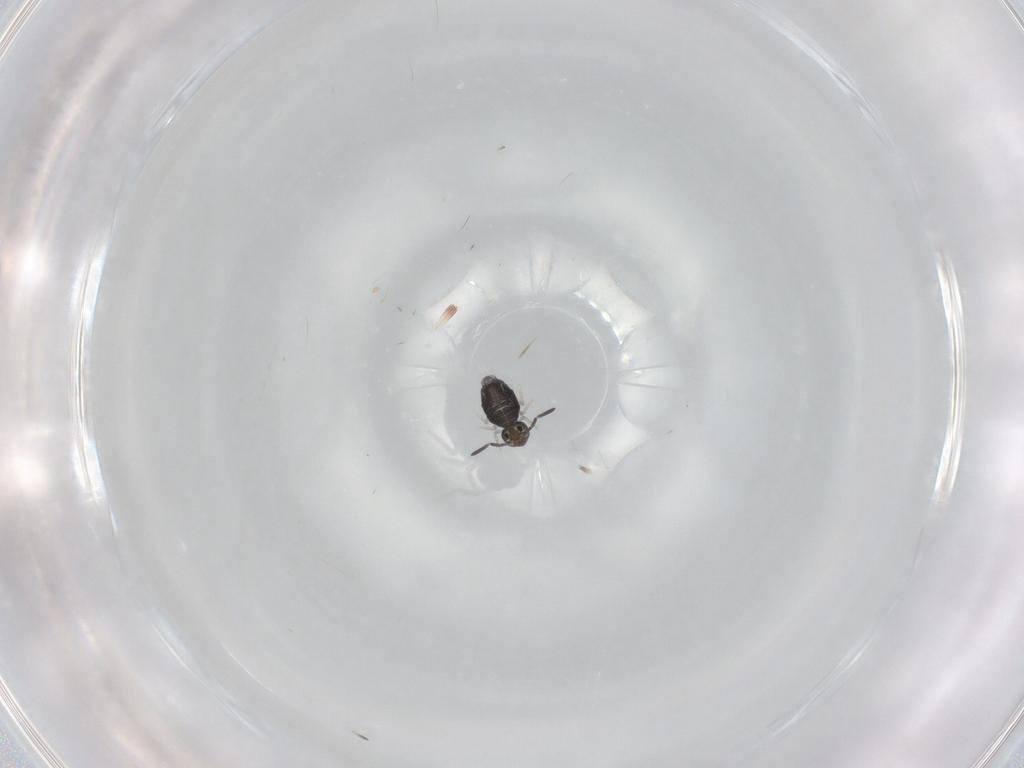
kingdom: Animalia
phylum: Arthropoda
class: Collembola
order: Symphypleona
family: Katiannidae
